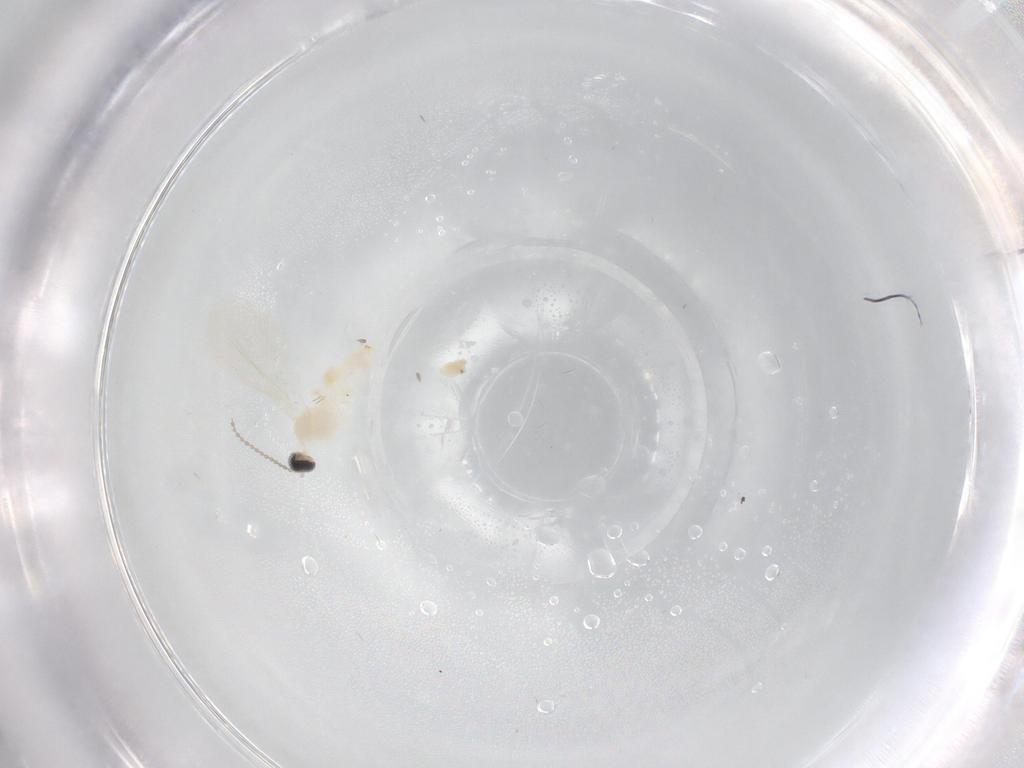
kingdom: Animalia
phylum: Arthropoda
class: Insecta
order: Diptera
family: Cecidomyiidae
